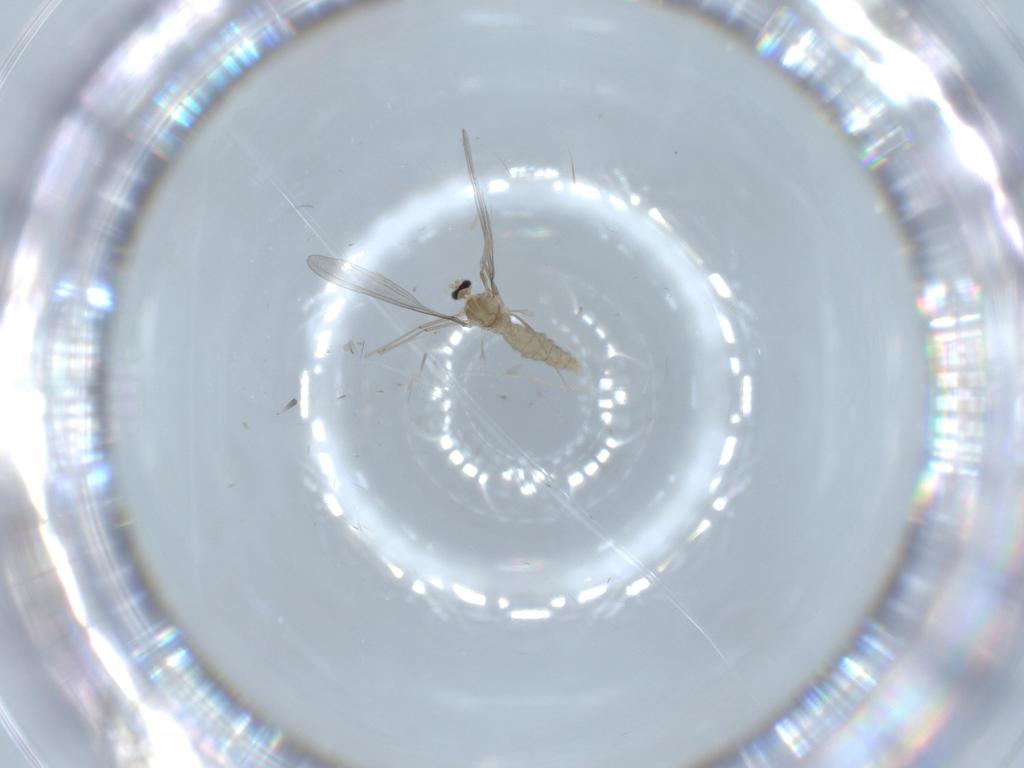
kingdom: Animalia
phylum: Arthropoda
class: Insecta
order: Diptera
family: Cecidomyiidae
